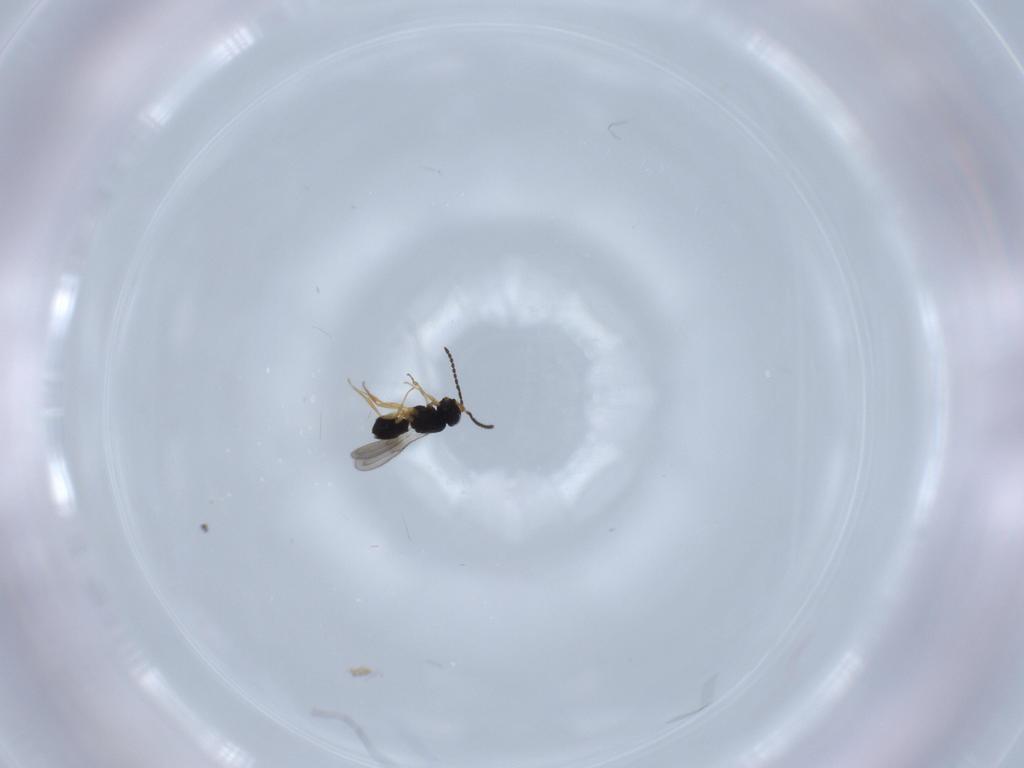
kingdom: Animalia
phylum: Arthropoda
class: Insecta
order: Hymenoptera
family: Scelionidae
